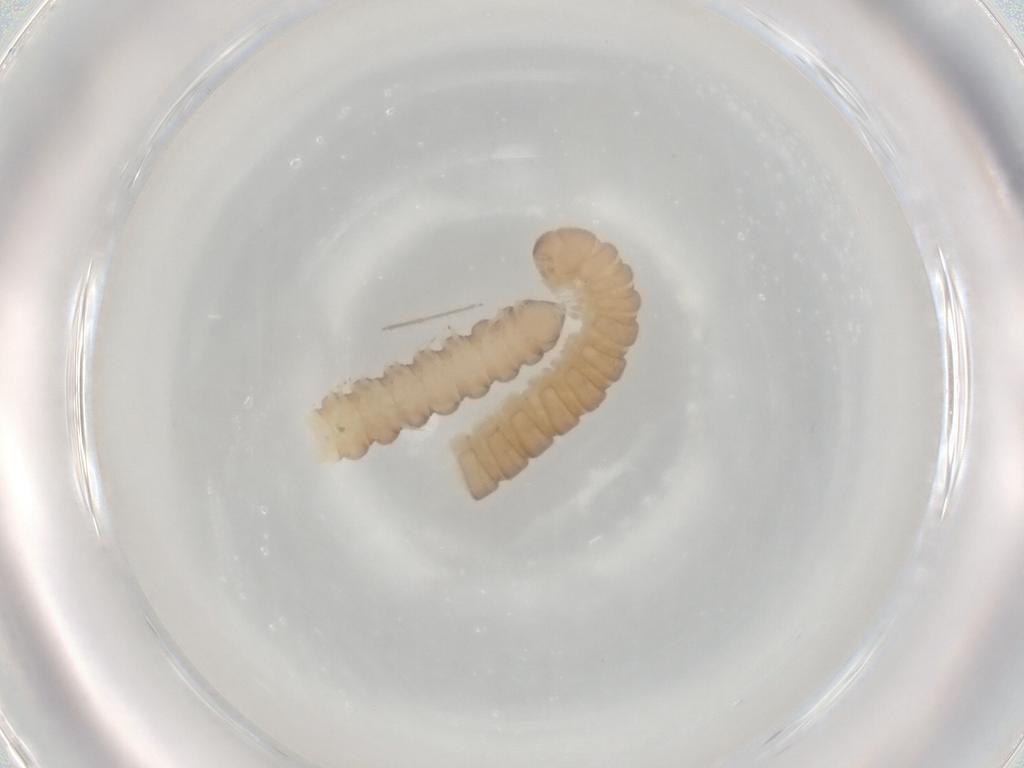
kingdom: Animalia
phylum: Arthropoda
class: Diplopoda
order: Polydesmida
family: Haplodesmidae
